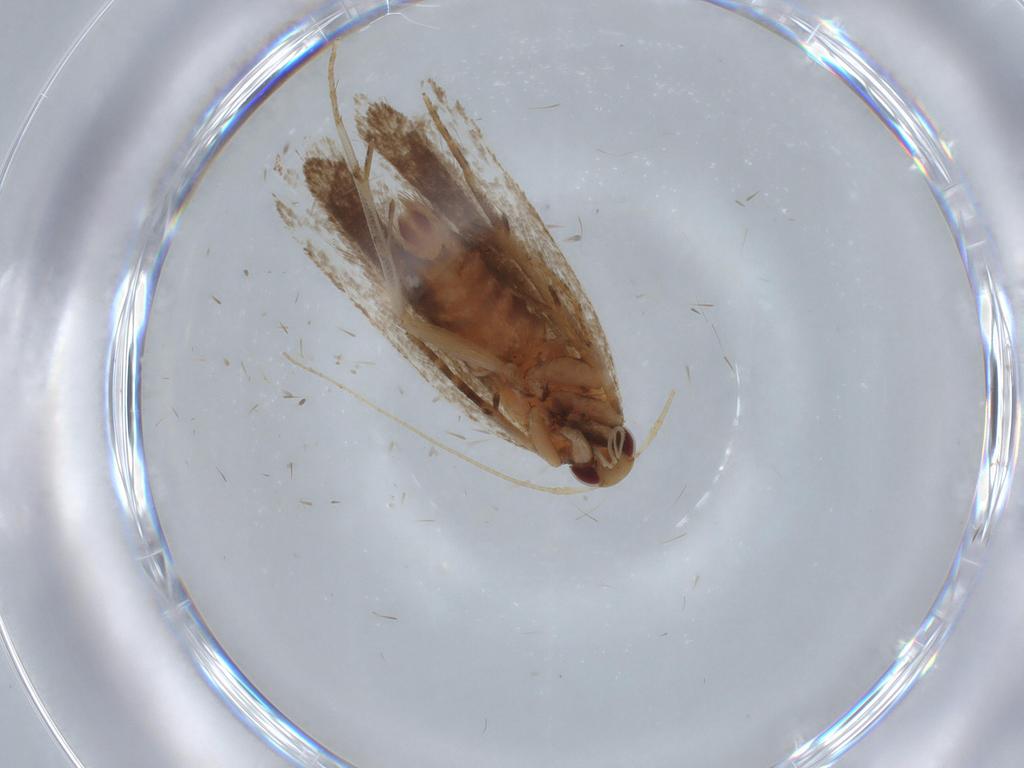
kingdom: Animalia
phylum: Arthropoda
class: Insecta
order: Lepidoptera
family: Gelechiidae
